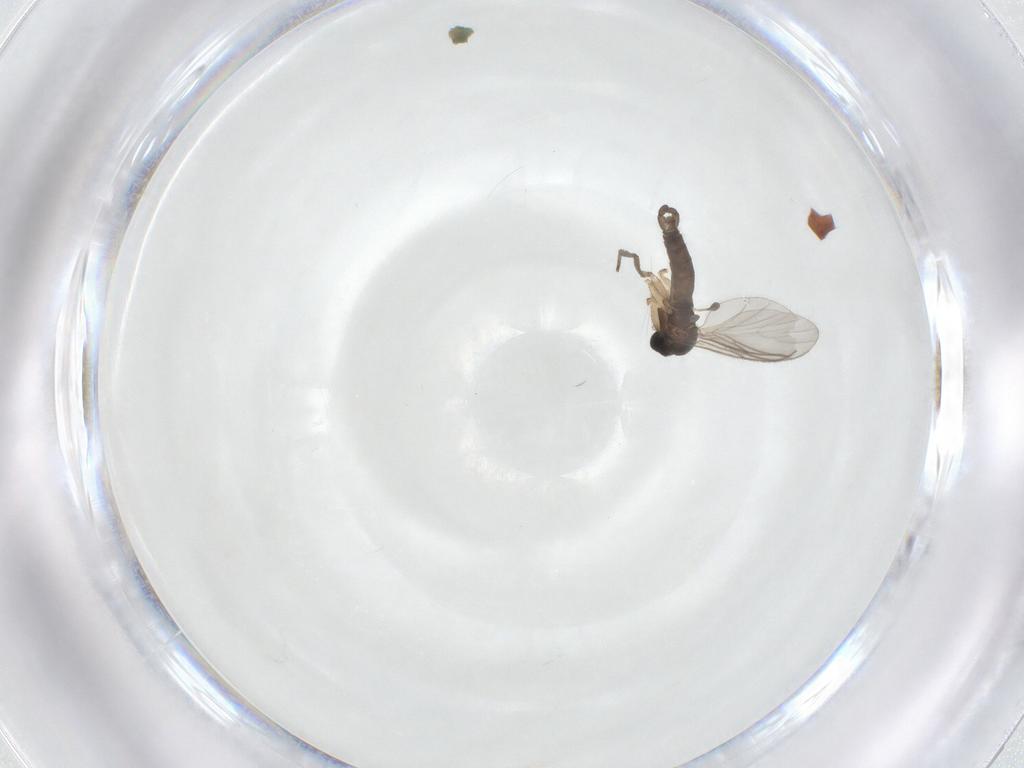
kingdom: Animalia
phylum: Arthropoda
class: Insecta
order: Diptera
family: Sciaridae
